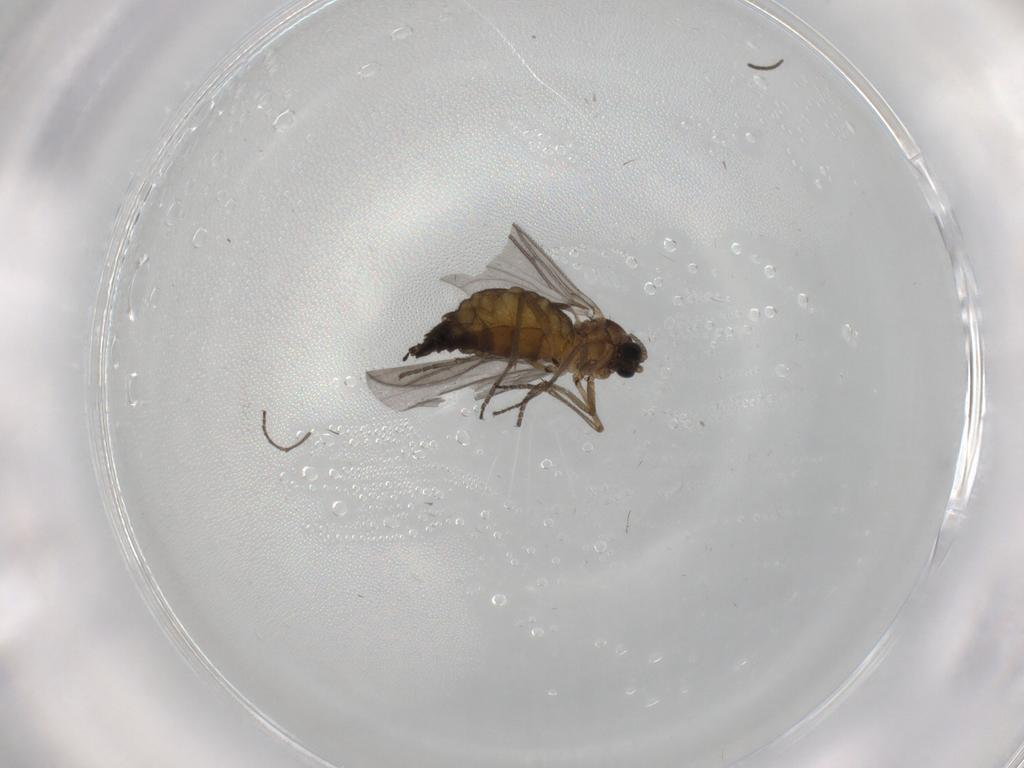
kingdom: Animalia
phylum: Arthropoda
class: Insecta
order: Diptera
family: Sciaridae
